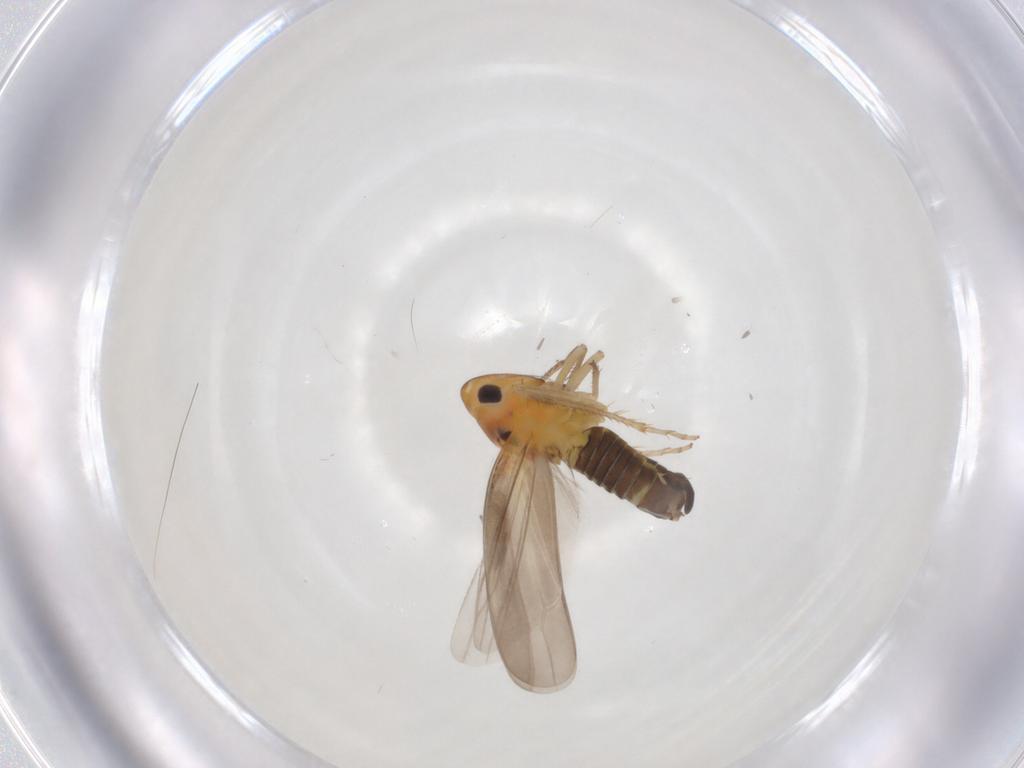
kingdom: Animalia
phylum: Arthropoda
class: Insecta
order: Hemiptera
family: Cicadellidae
